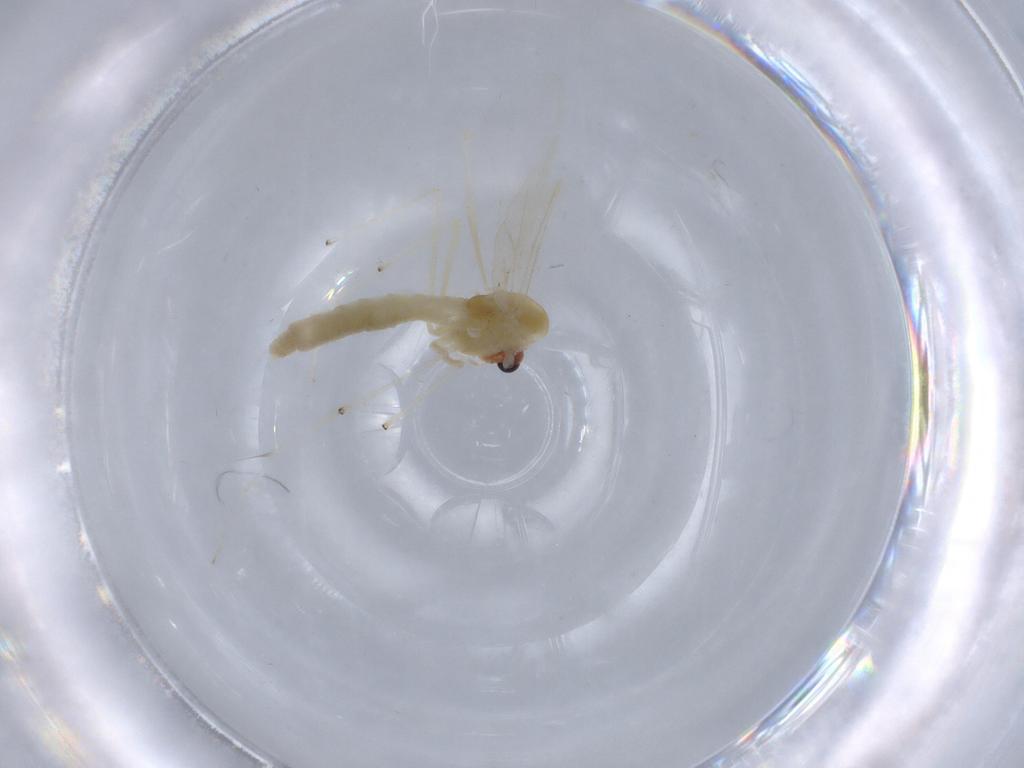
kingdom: Animalia
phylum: Arthropoda
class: Insecta
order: Diptera
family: Chironomidae
